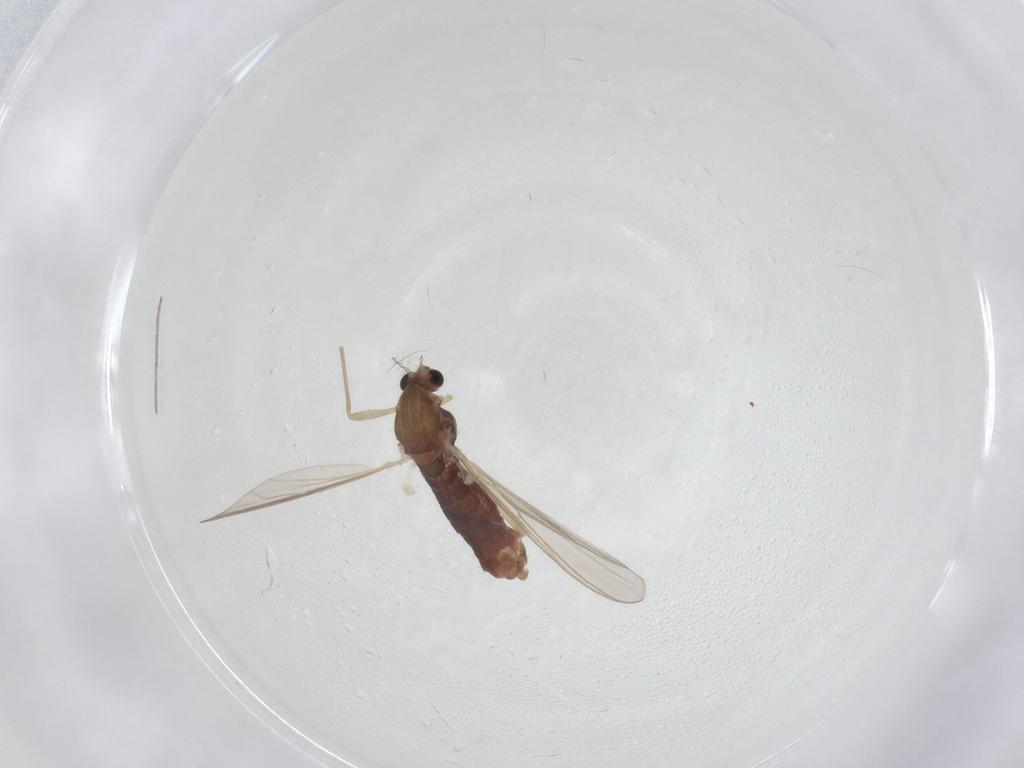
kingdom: Animalia
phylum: Arthropoda
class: Insecta
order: Diptera
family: Chironomidae
